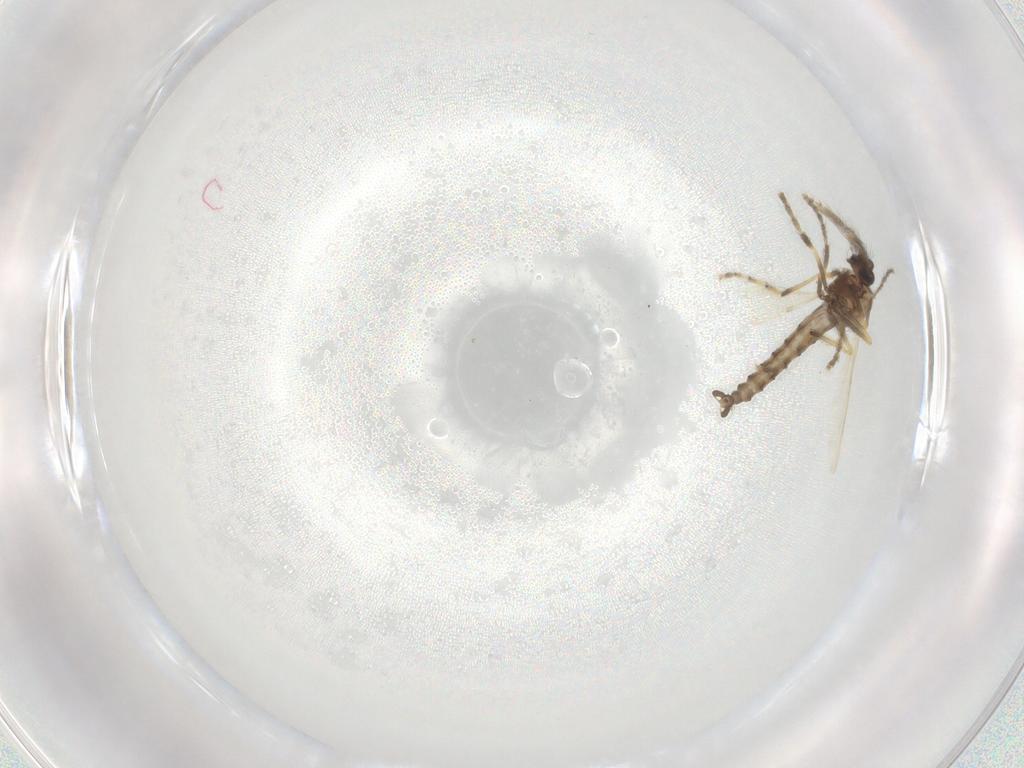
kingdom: Animalia
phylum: Arthropoda
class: Insecta
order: Diptera
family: Ceratopogonidae
